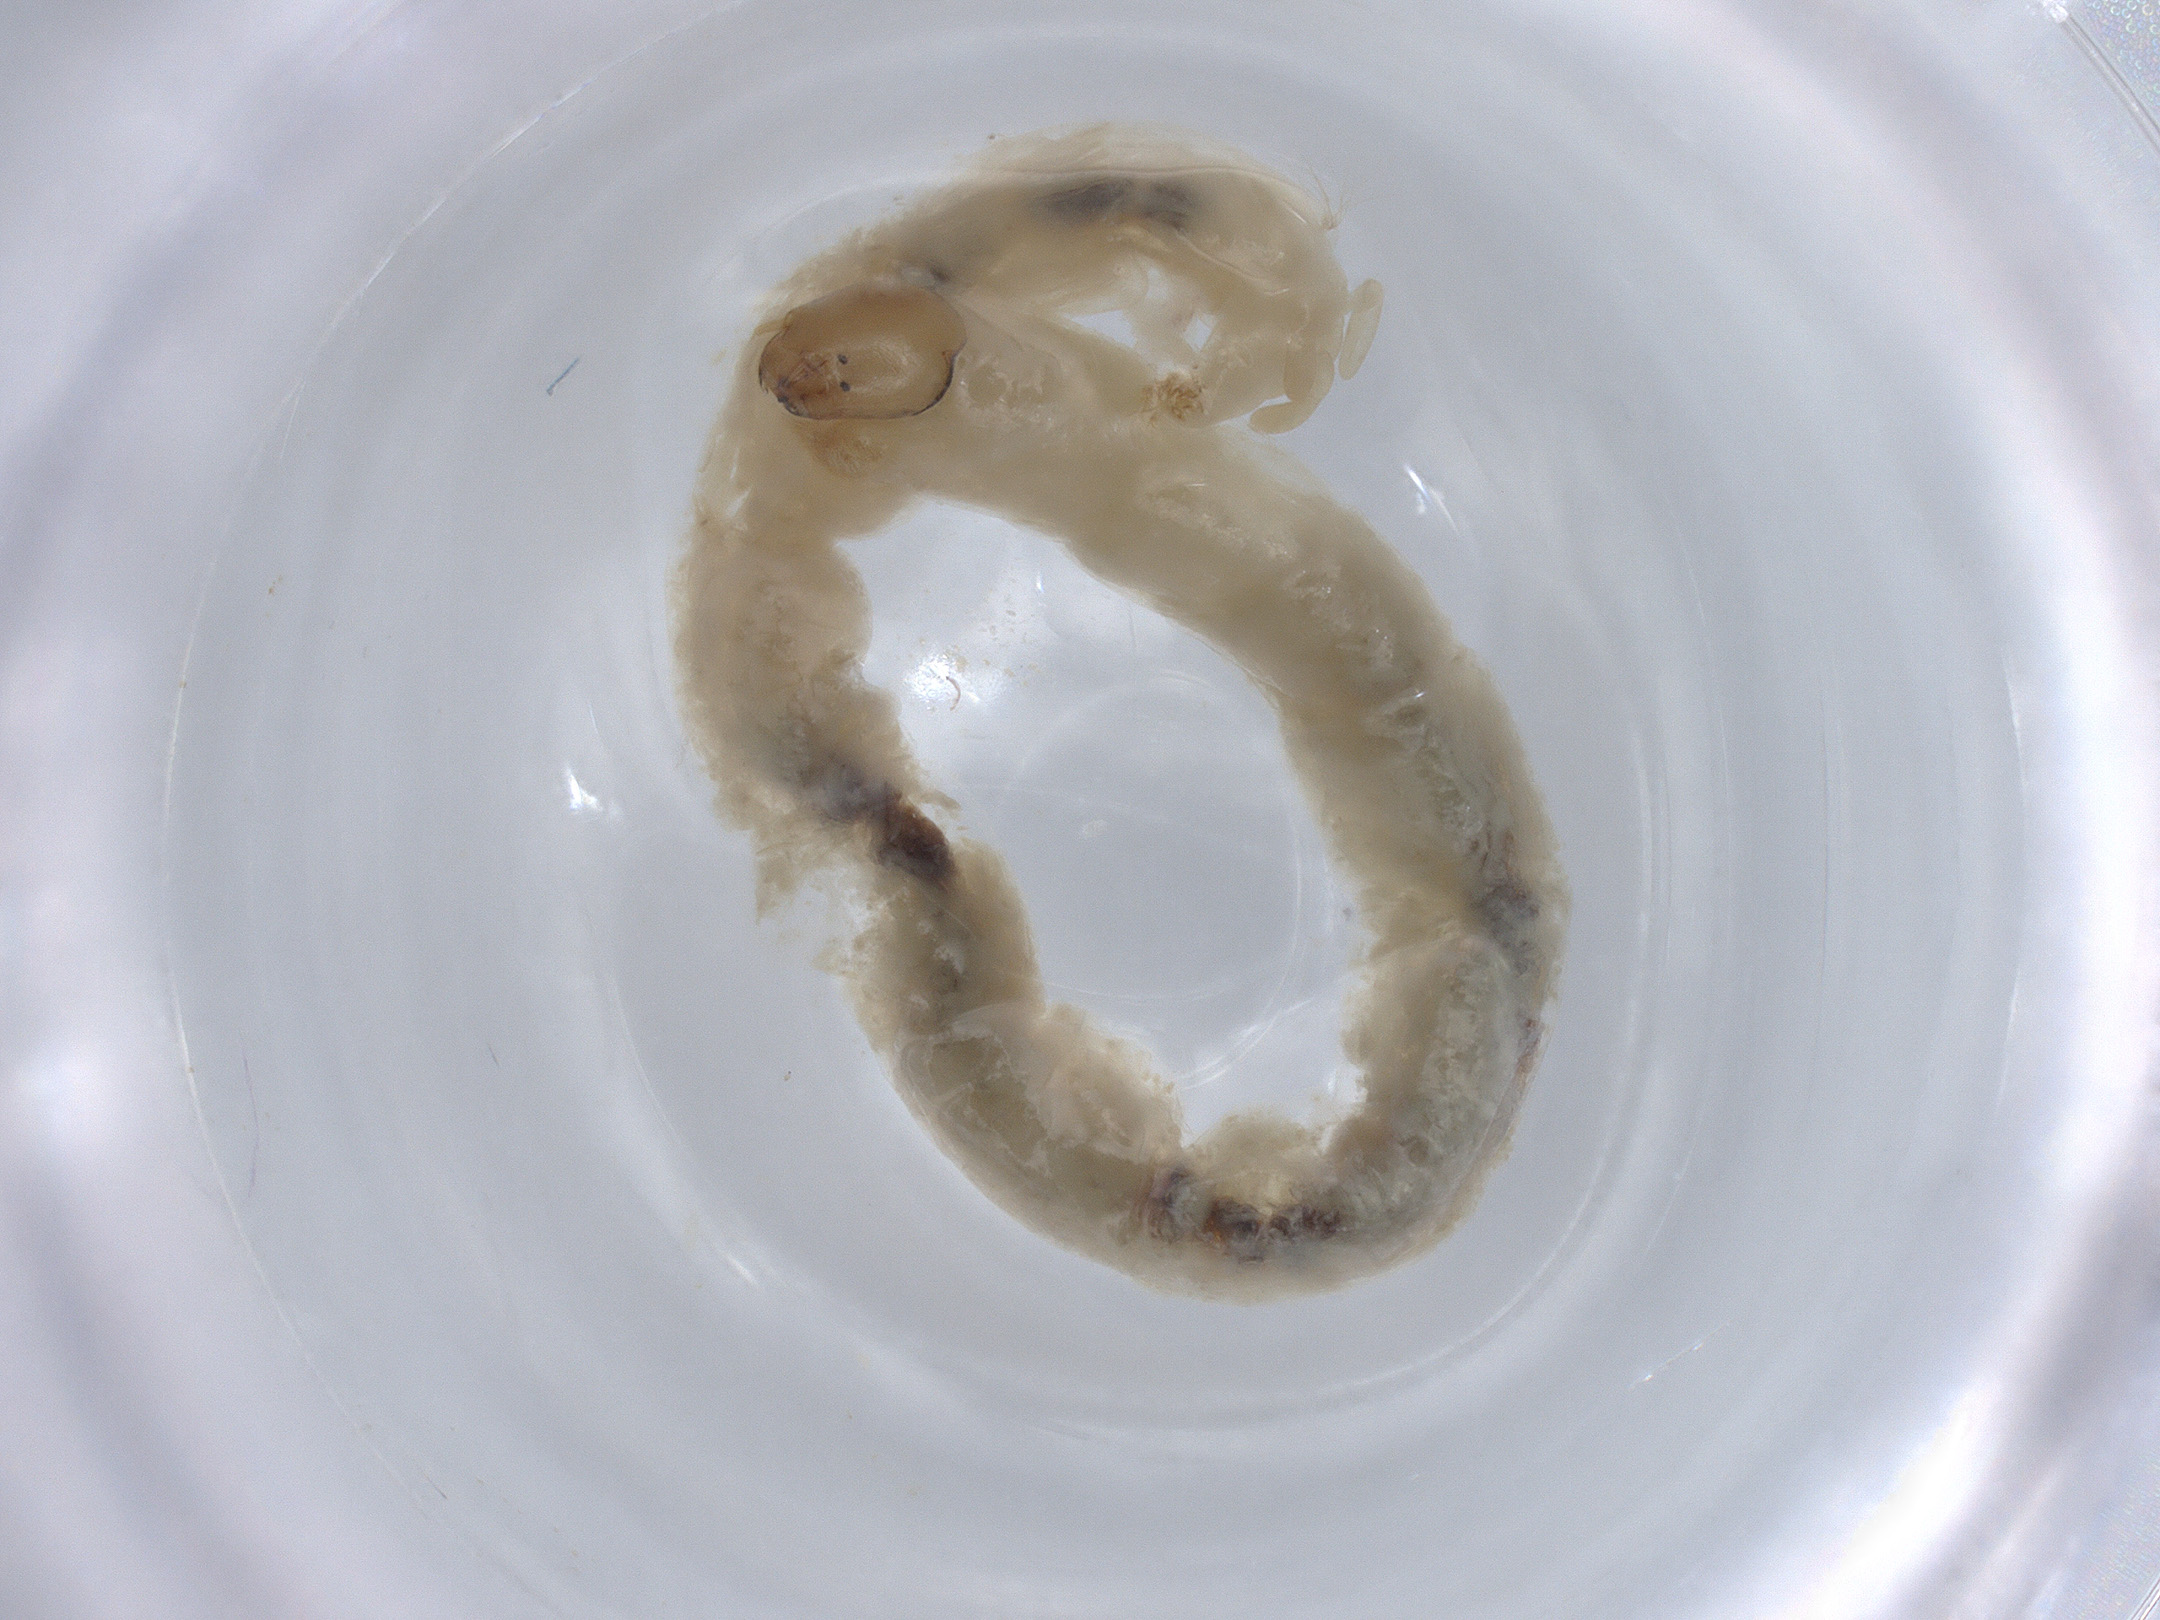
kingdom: Animalia
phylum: Arthropoda
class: Insecta
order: Diptera
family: Chironomidae
